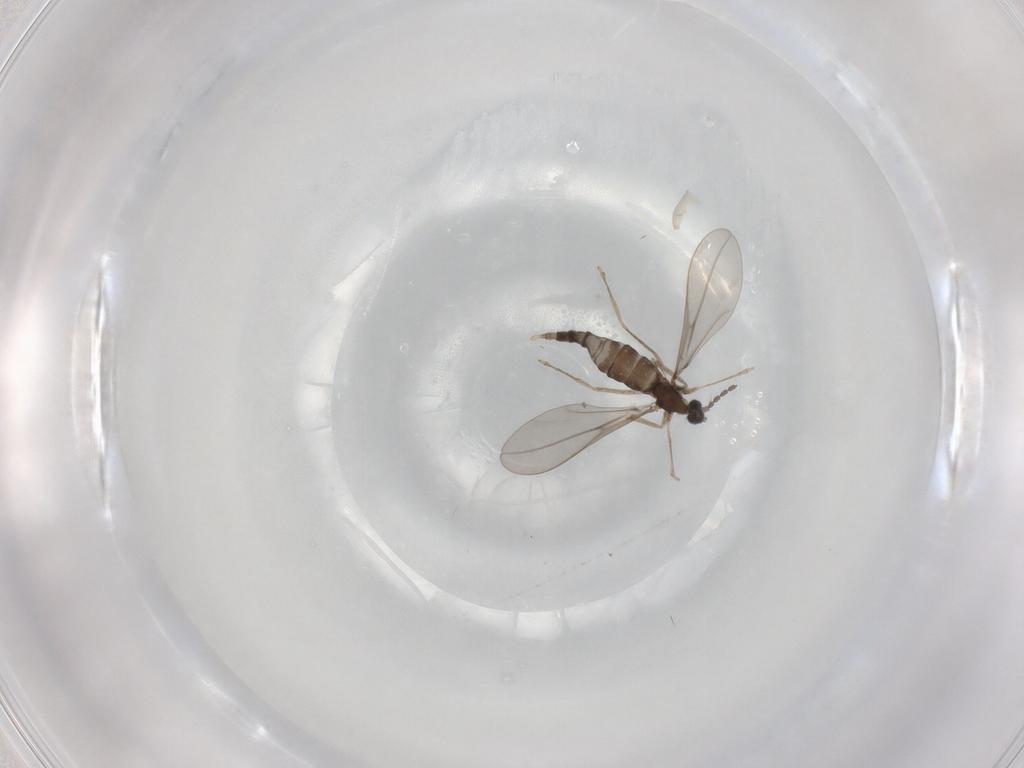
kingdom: Animalia
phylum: Arthropoda
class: Insecta
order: Diptera
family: Cecidomyiidae
